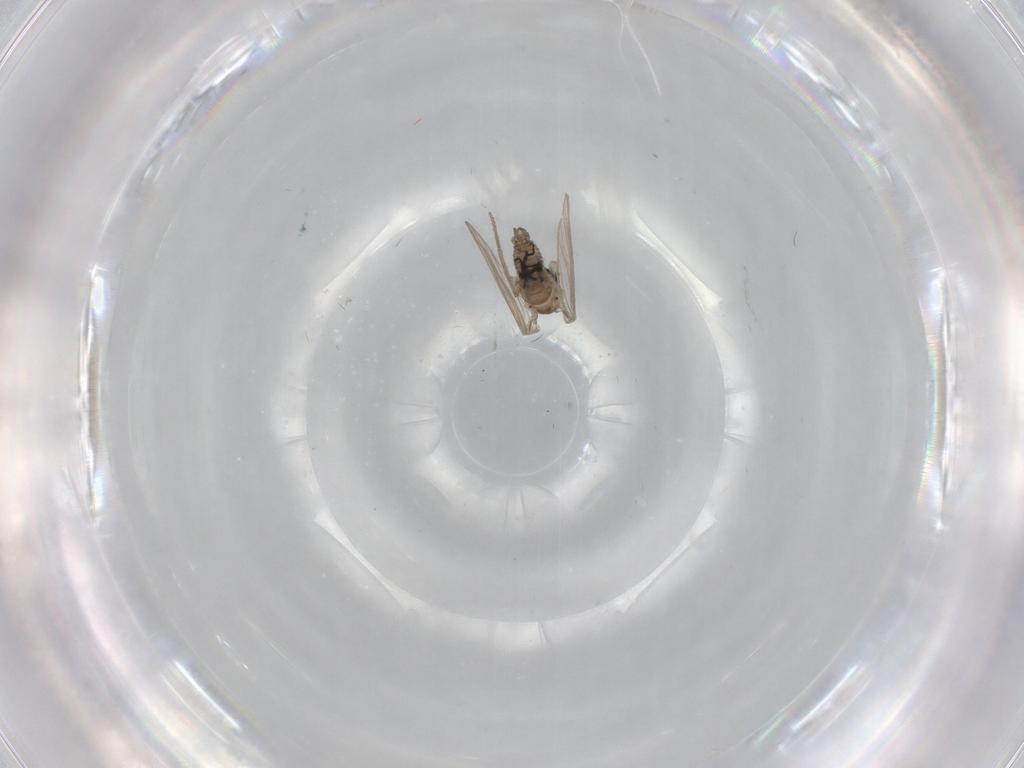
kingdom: Animalia
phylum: Arthropoda
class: Insecta
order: Diptera
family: Psychodidae
